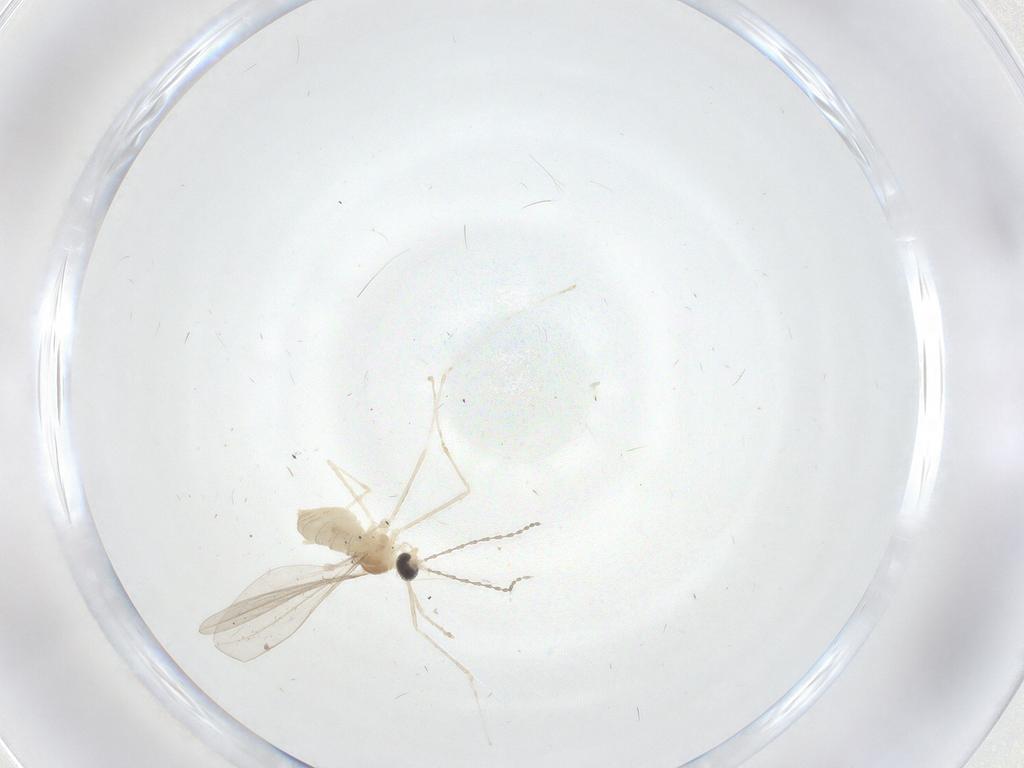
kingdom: Animalia
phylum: Arthropoda
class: Insecta
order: Diptera
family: Cecidomyiidae
